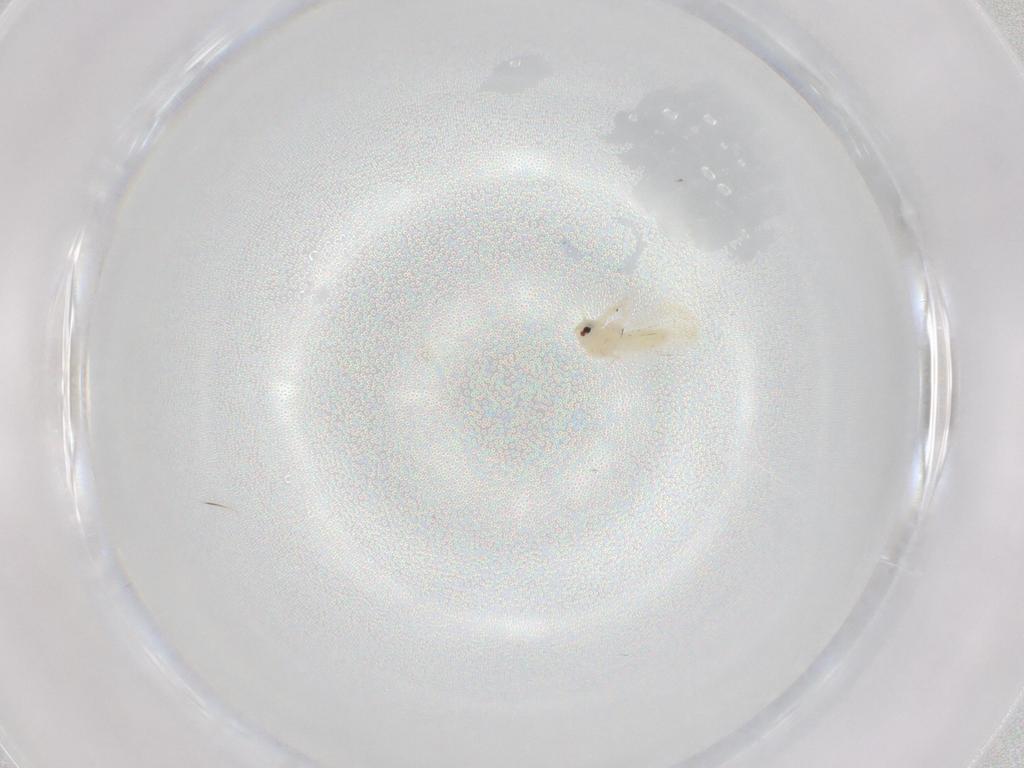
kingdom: Animalia
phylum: Arthropoda
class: Insecta
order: Hemiptera
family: Aleyrodidae
